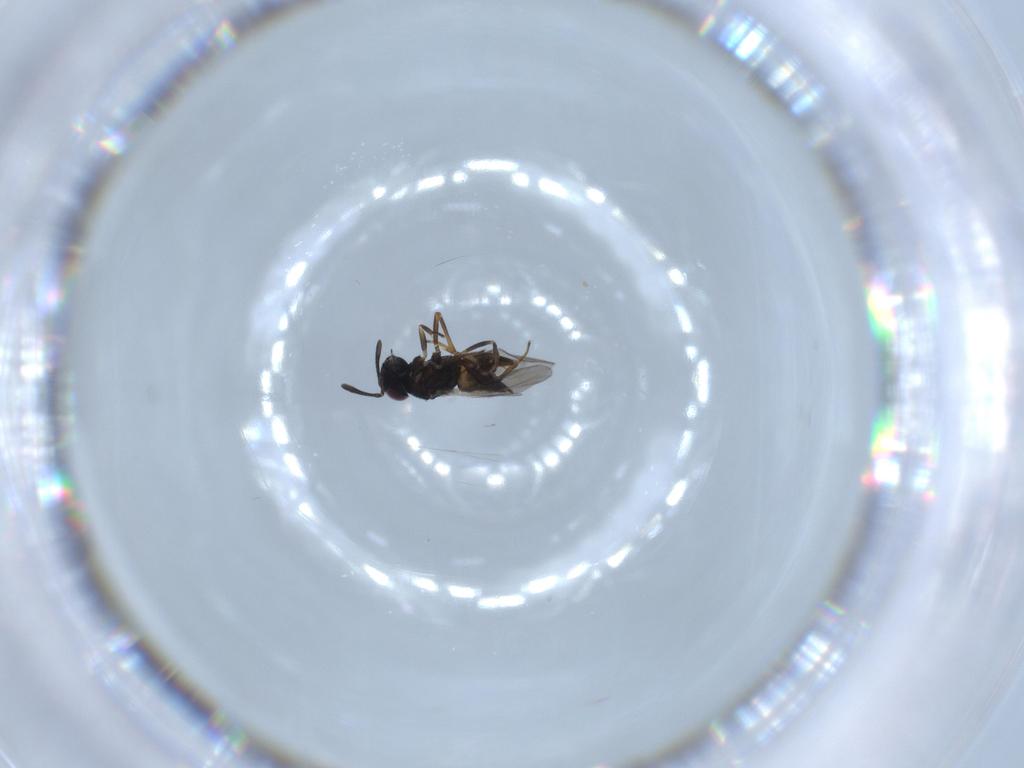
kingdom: Animalia
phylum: Arthropoda
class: Insecta
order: Hymenoptera
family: Encyrtidae
